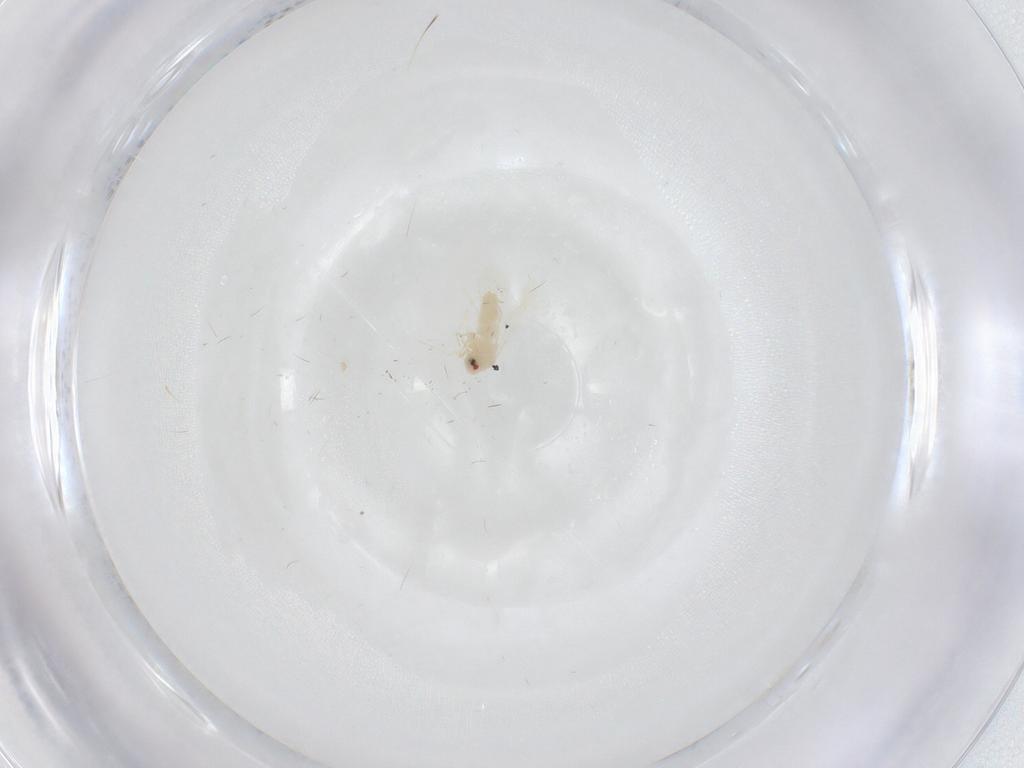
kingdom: Animalia
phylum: Arthropoda
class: Insecta
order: Hemiptera
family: Aleyrodidae
